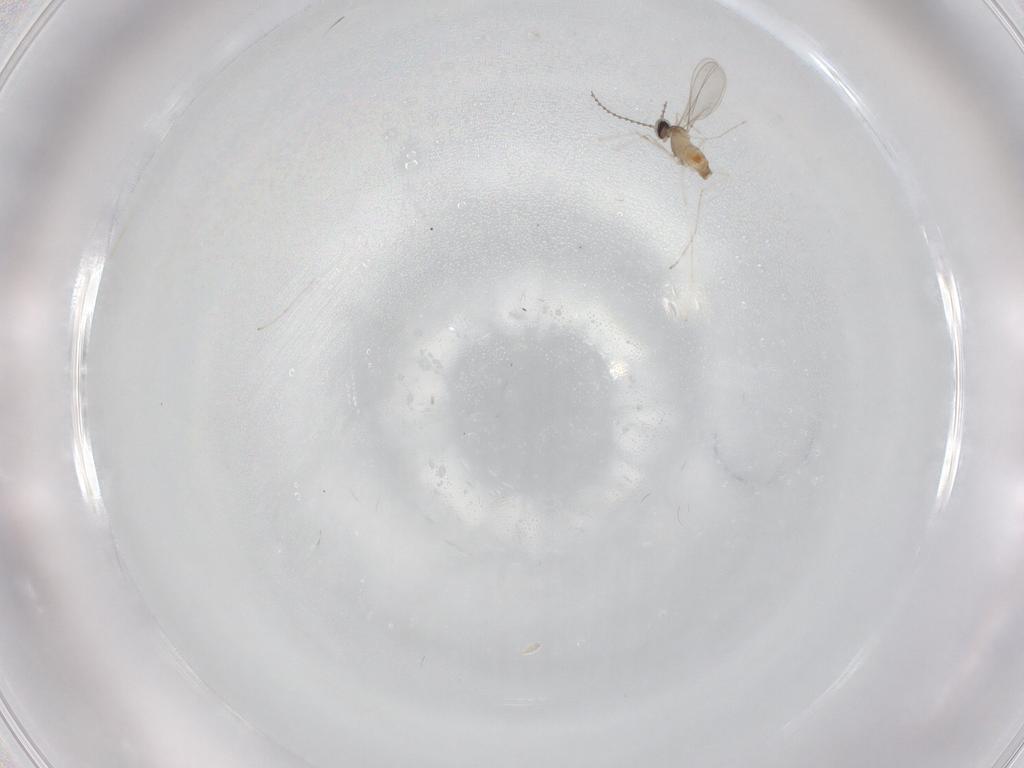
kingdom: Animalia
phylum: Arthropoda
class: Insecta
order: Diptera
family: Cecidomyiidae
